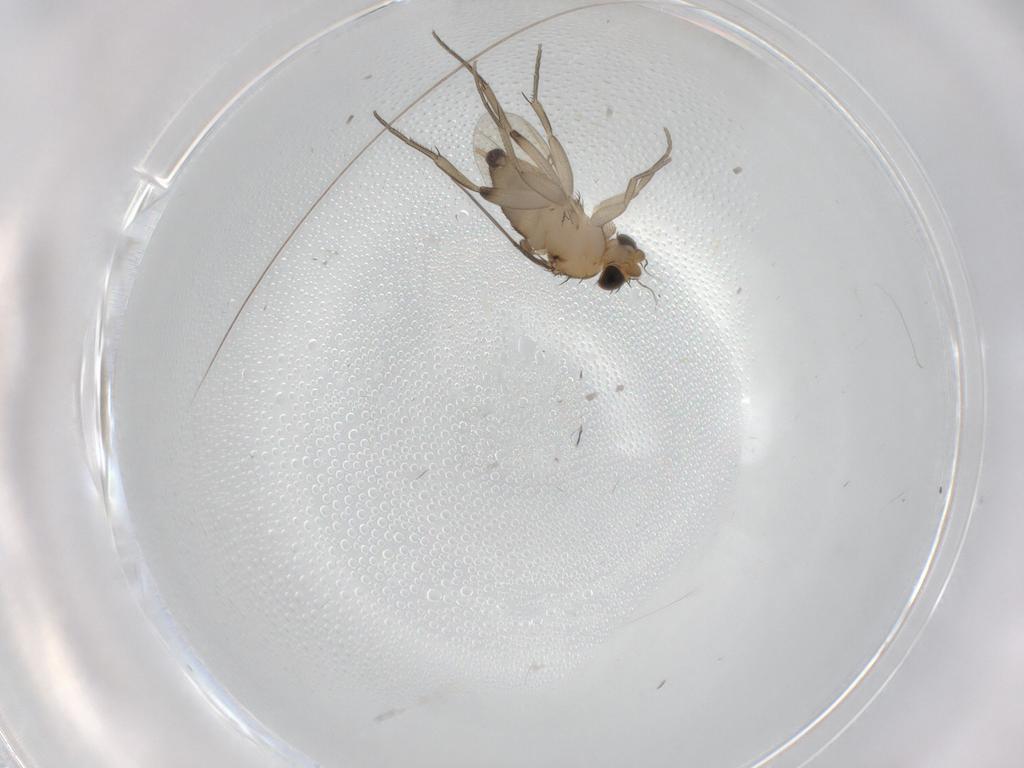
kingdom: Animalia
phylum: Arthropoda
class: Insecta
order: Diptera
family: Phoridae
